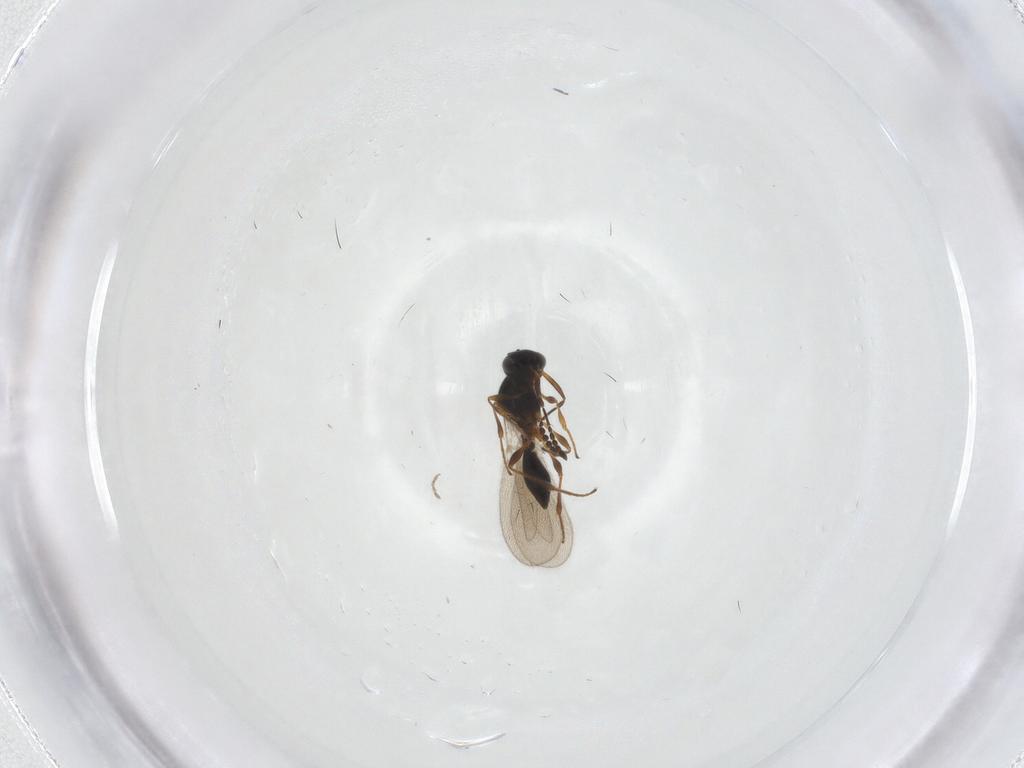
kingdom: Animalia
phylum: Arthropoda
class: Insecta
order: Hymenoptera
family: Platygastridae
